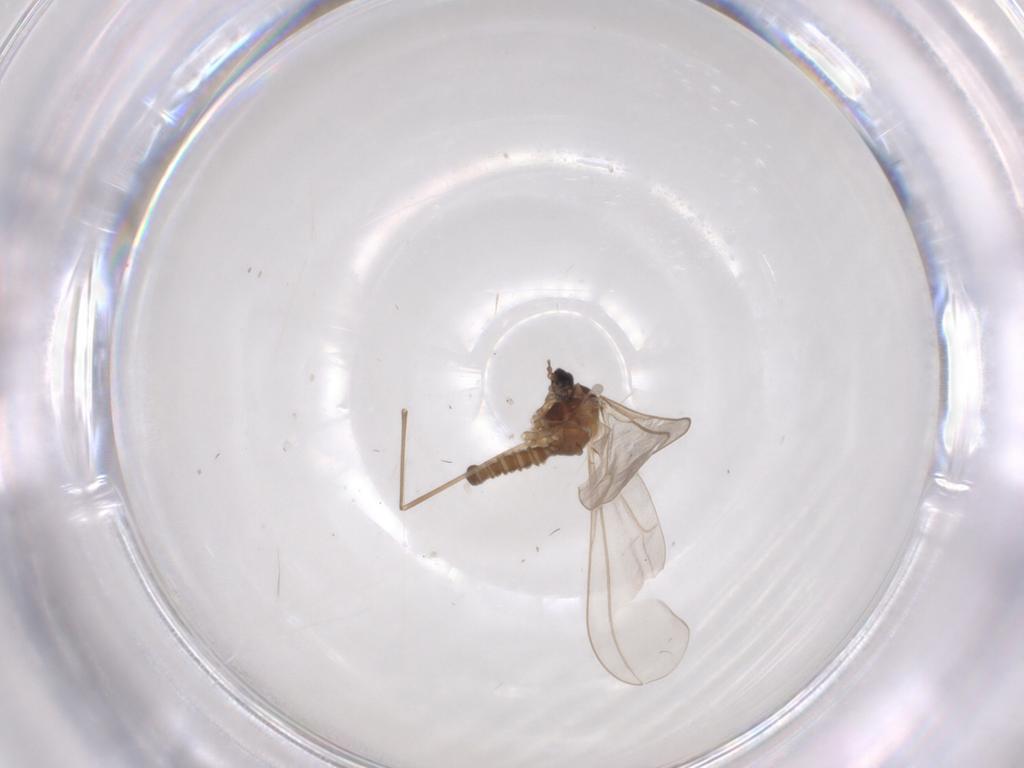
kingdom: Animalia
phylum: Arthropoda
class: Insecta
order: Diptera
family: Cecidomyiidae
